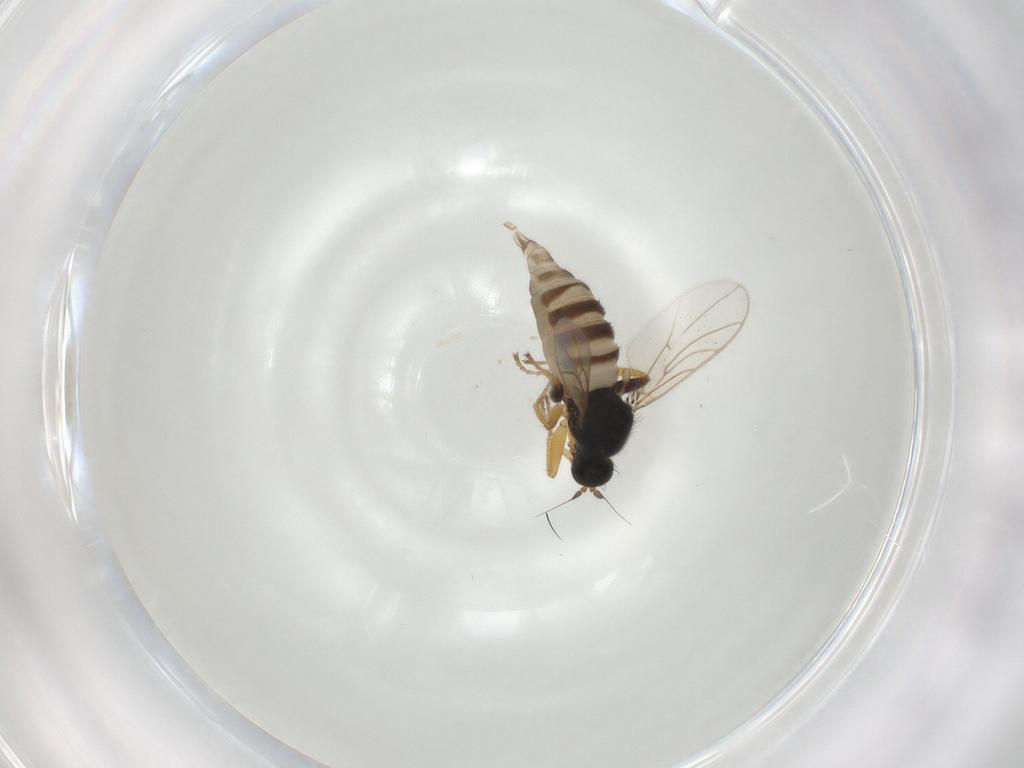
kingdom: Animalia
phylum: Arthropoda
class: Insecta
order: Diptera
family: Hybotidae
